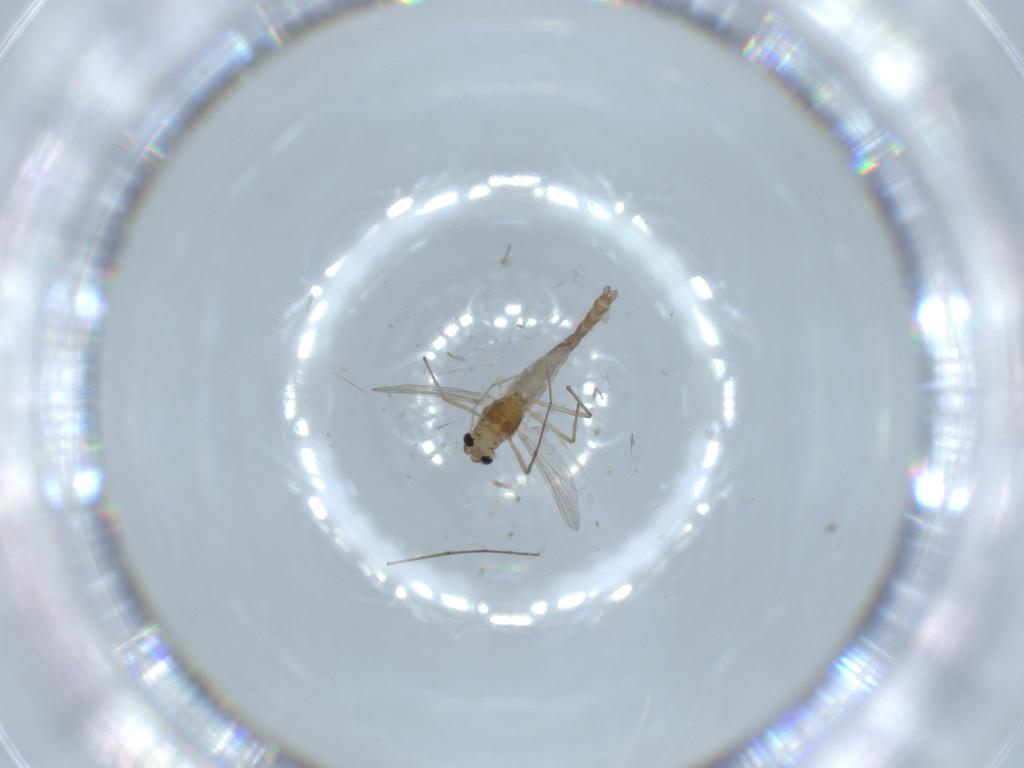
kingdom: Animalia
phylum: Arthropoda
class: Insecta
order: Diptera
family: Chironomidae
